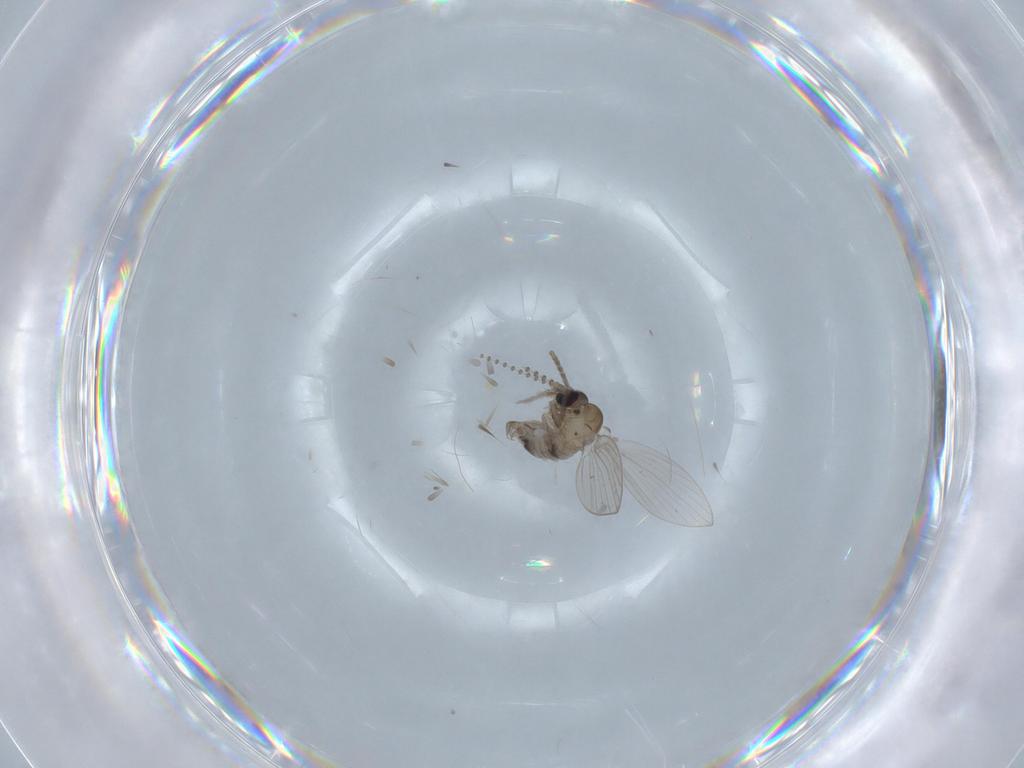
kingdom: Animalia
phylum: Arthropoda
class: Insecta
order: Diptera
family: Psychodidae
